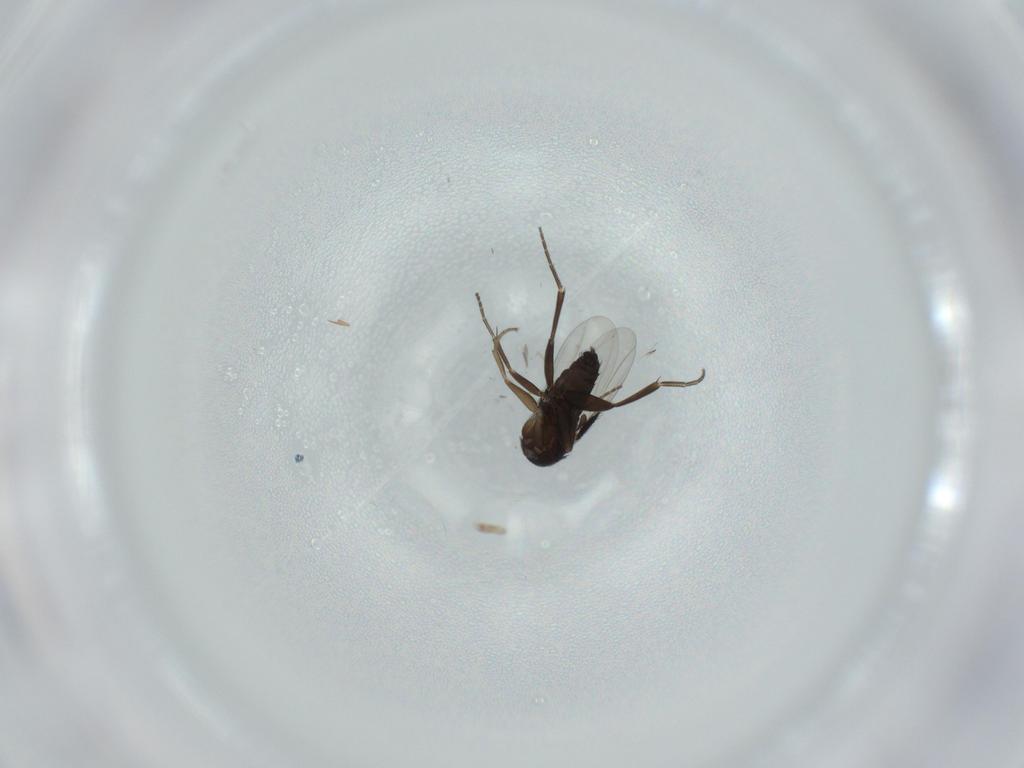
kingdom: Animalia
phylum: Arthropoda
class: Insecta
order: Diptera
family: Phoridae
